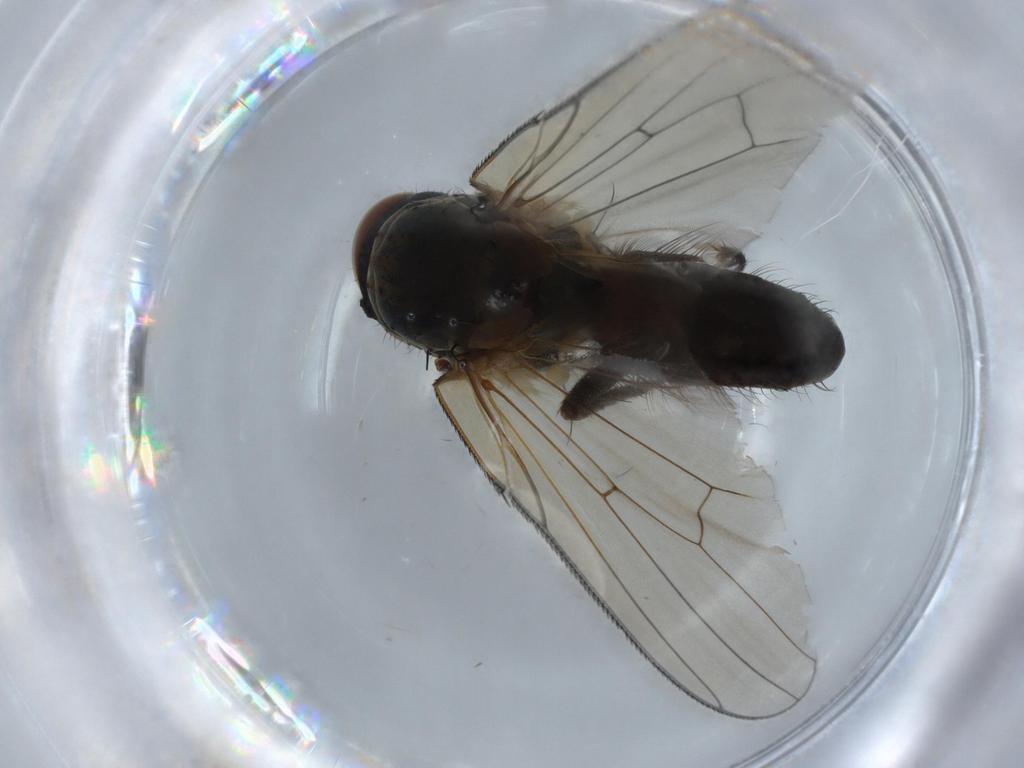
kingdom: Animalia
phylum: Arthropoda
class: Insecta
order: Diptera
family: Anthomyiidae
